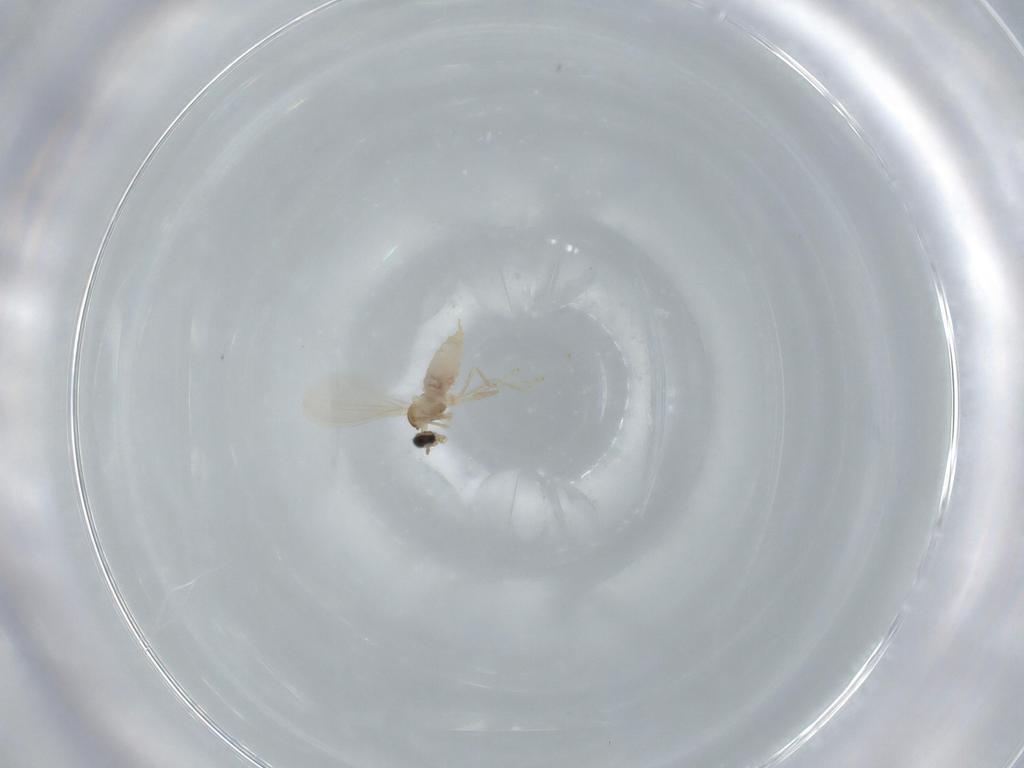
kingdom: Animalia
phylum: Arthropoda
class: Insecta
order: Diptera
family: Cecidomyiidae
